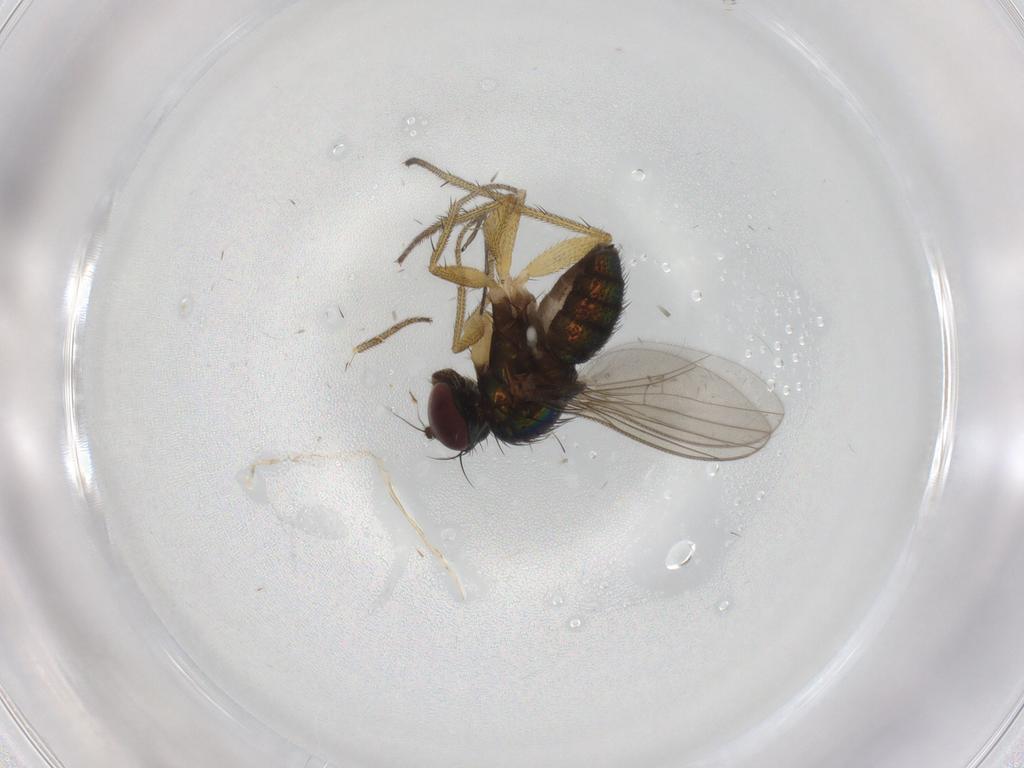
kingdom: Animalia
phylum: Arthropoda
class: Insecta
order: Diptera
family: Chironomidae
